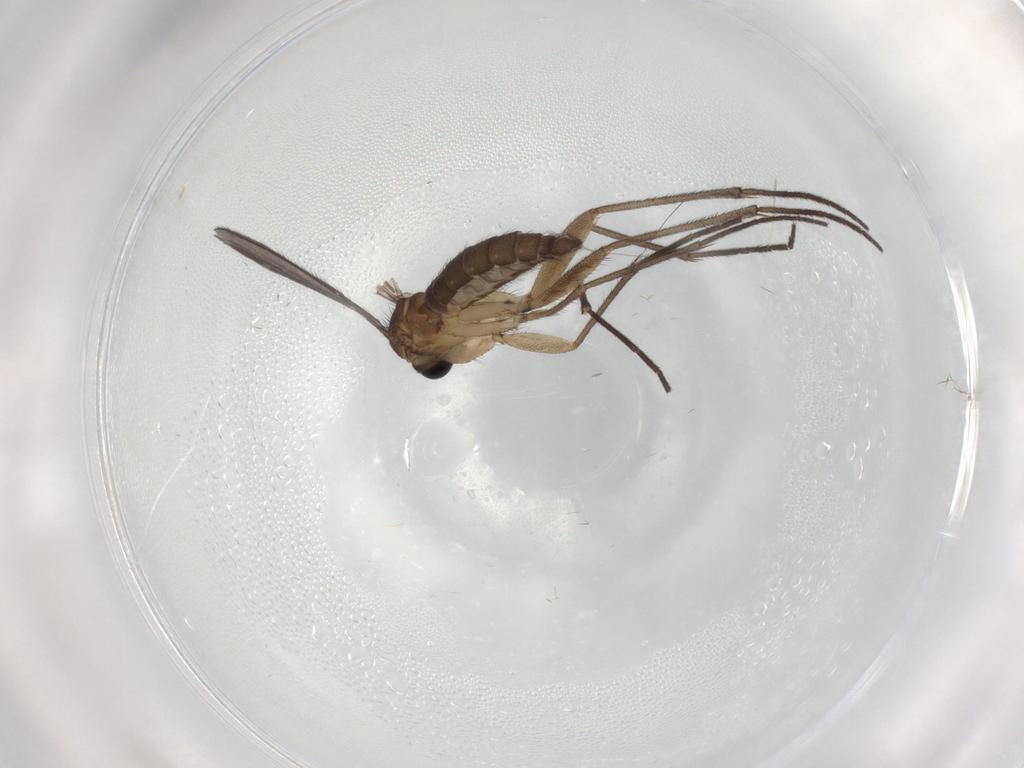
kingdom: Animalia
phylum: Arthropoda
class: Insecta
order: Diptera
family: Sciaridae
